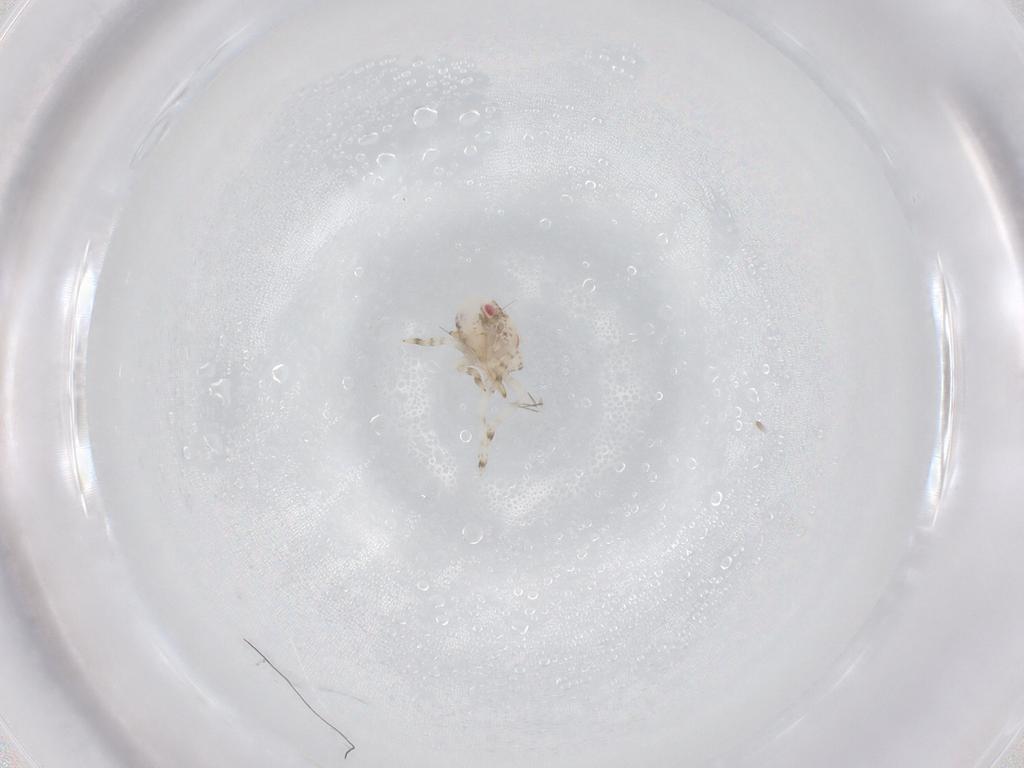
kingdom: Animalia
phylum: Arthropoda
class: Insecta
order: Hemiptera
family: Acanaloniidae
